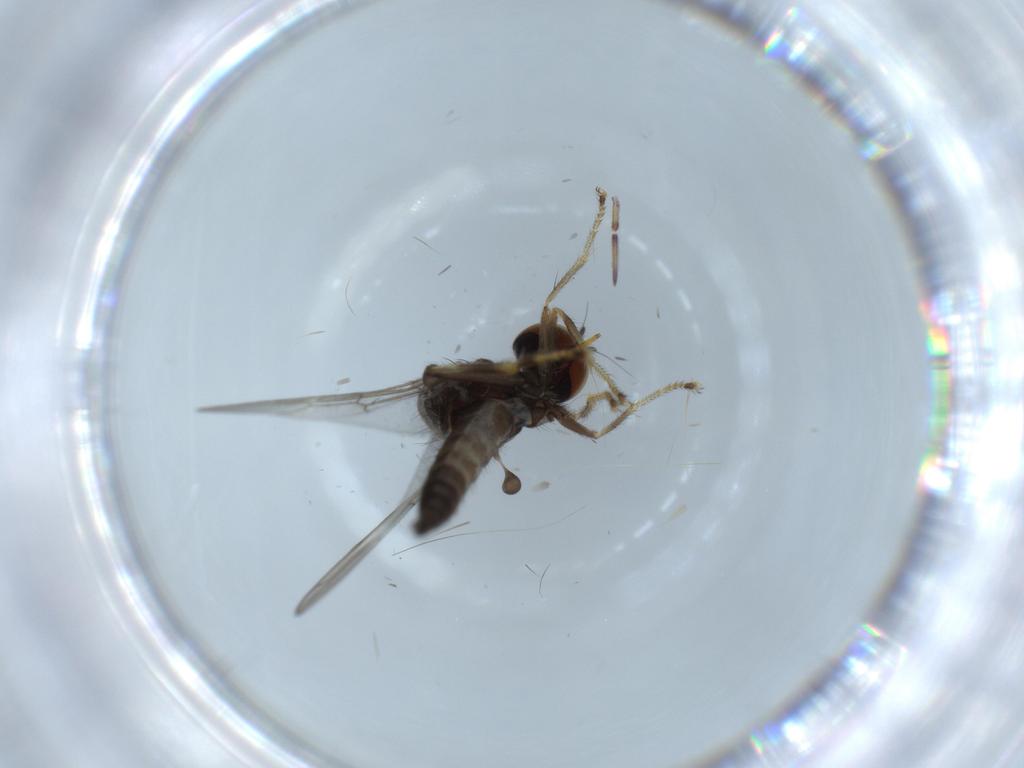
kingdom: Animalia
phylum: Arthropoda
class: Insecta
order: Diptera
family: Hybotidae
